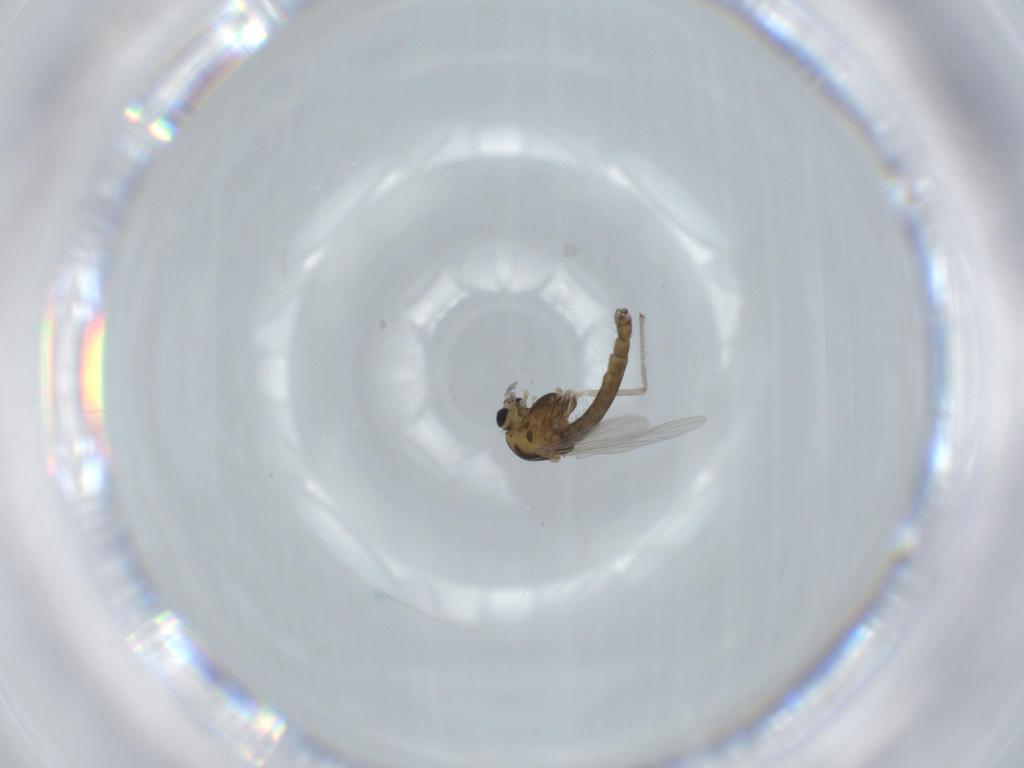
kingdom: Animalia
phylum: Arthropoda
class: Insecta
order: Diptera
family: Chironomidae
